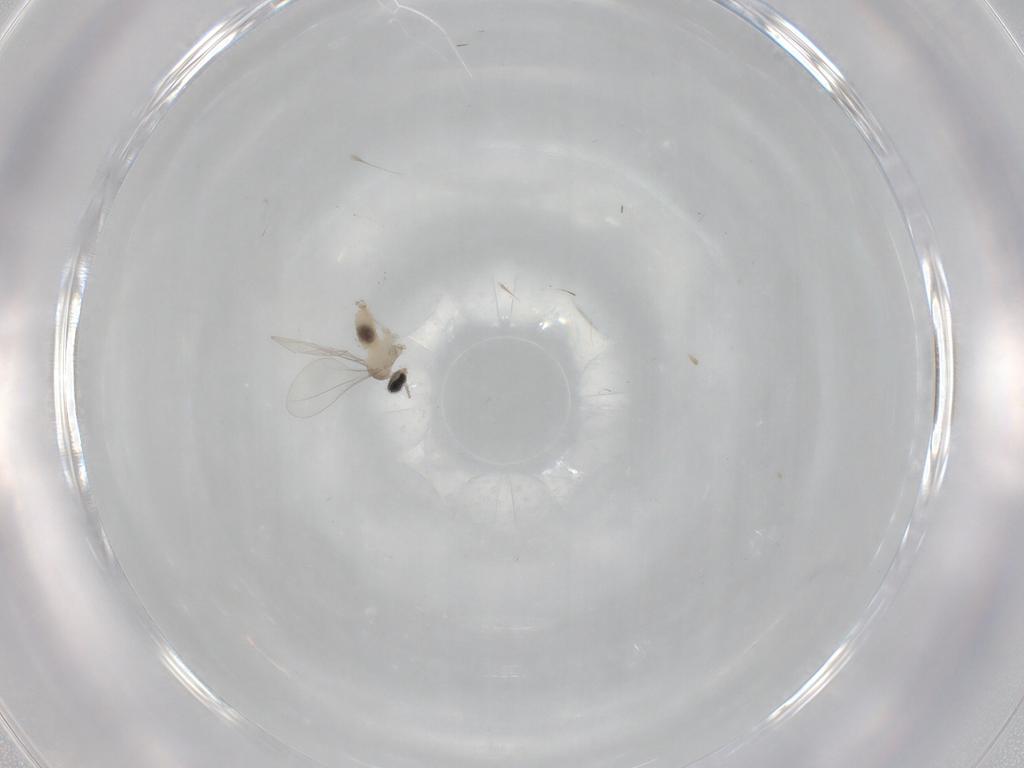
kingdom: Animalia
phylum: Arthropoda
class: Insecta
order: Diptera
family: Cecidomyiidae
